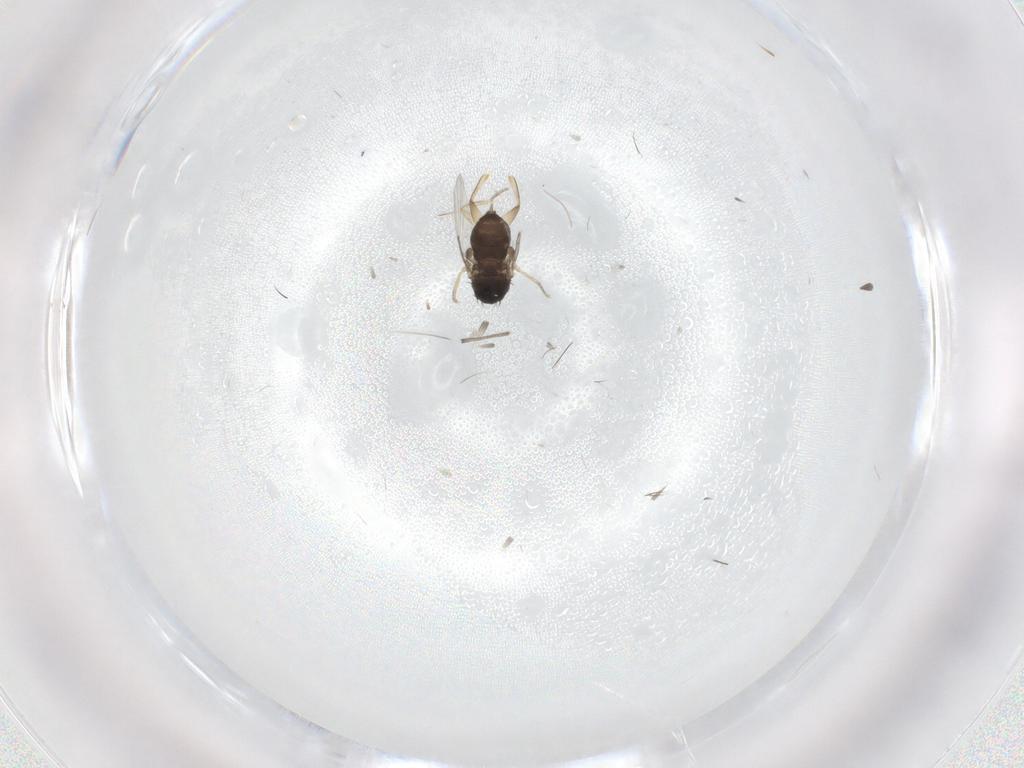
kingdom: Animalia
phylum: Arthropoda
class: Insecta
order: Diptera
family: Phoridae
